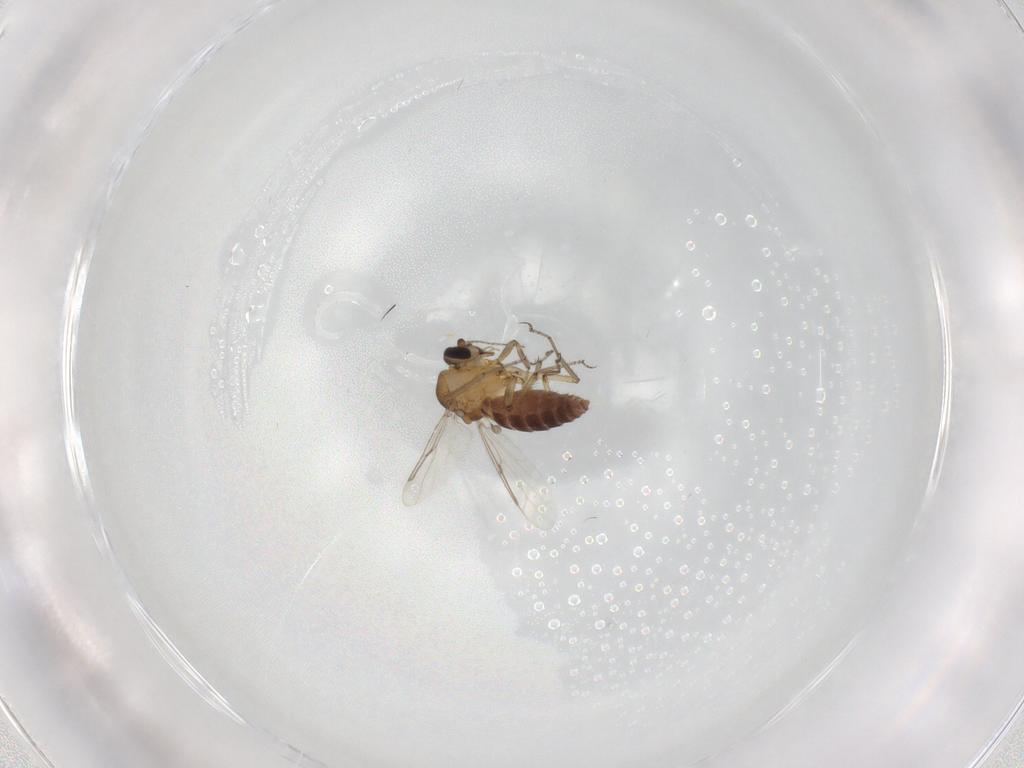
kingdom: Animalia
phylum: Arthropoda
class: Insecta
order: Diptera
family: Ceratopogonidae
